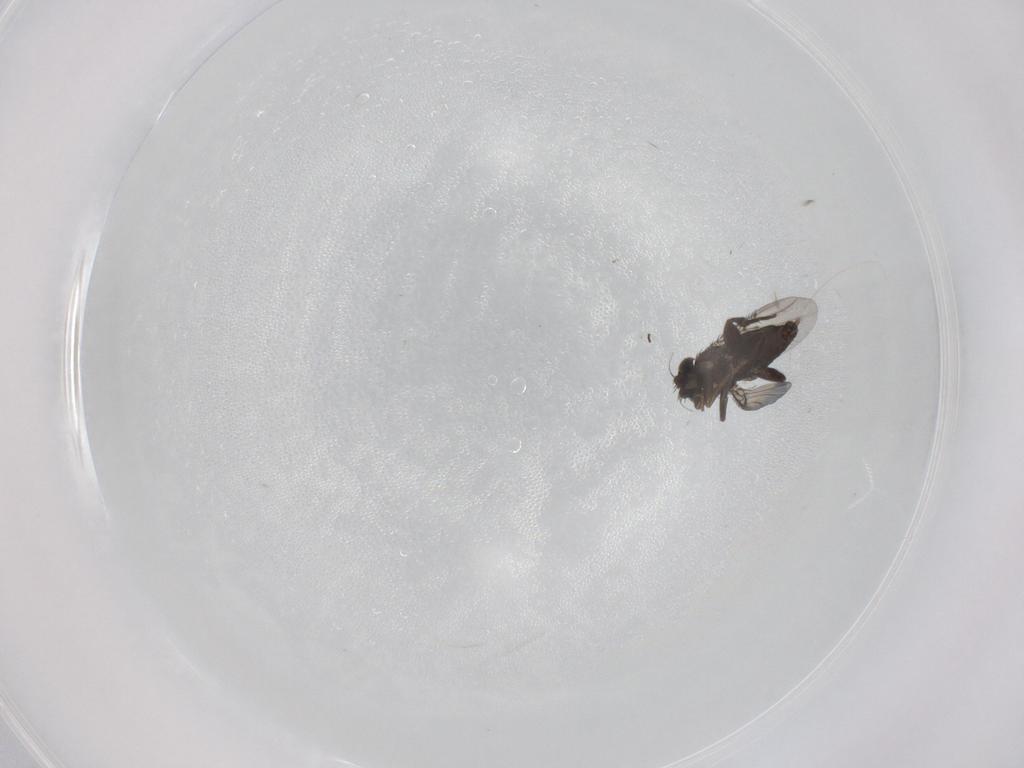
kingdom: Animalia
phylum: Arthropoda
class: Insecta
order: Diptera
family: Phoridae
